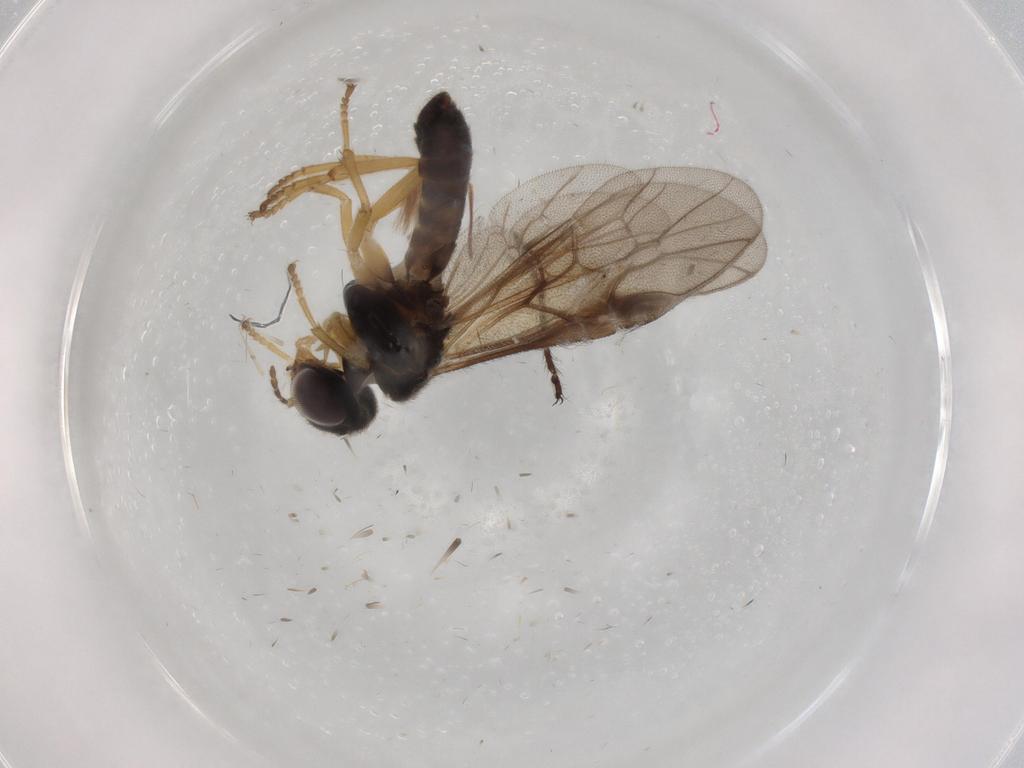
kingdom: Animalia
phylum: Arthropoda
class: Insecta
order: Diptera
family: Limoniidae
